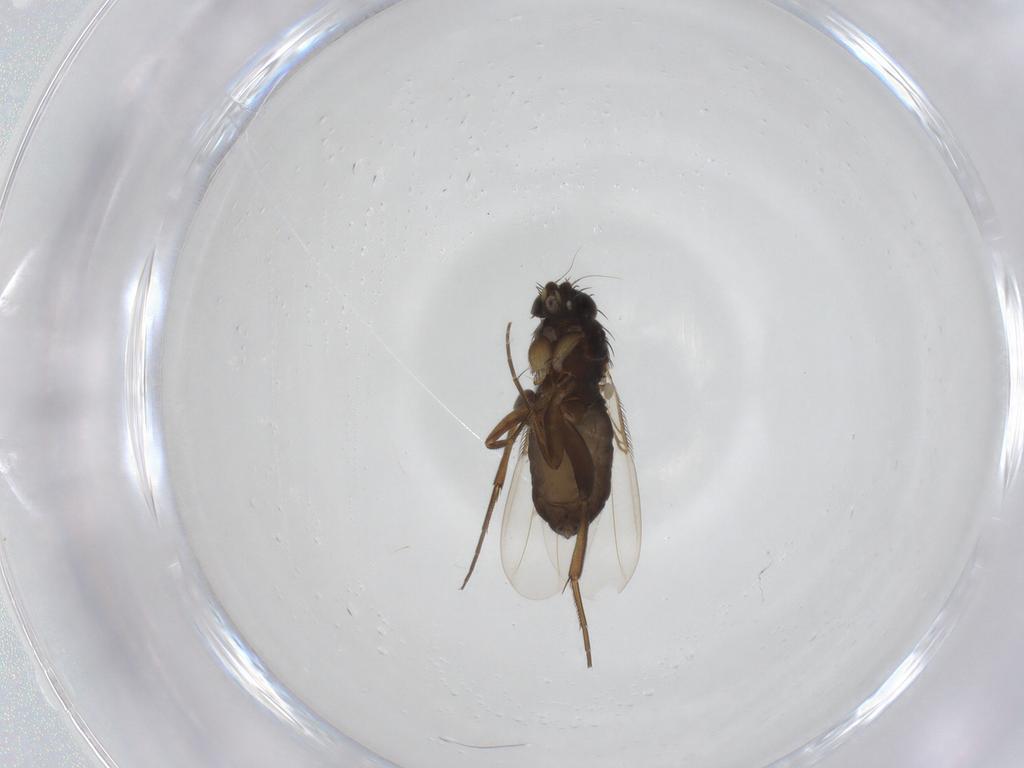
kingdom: Animalia
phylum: Arthropoda
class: Insecta
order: Diptera
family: Phoridae
